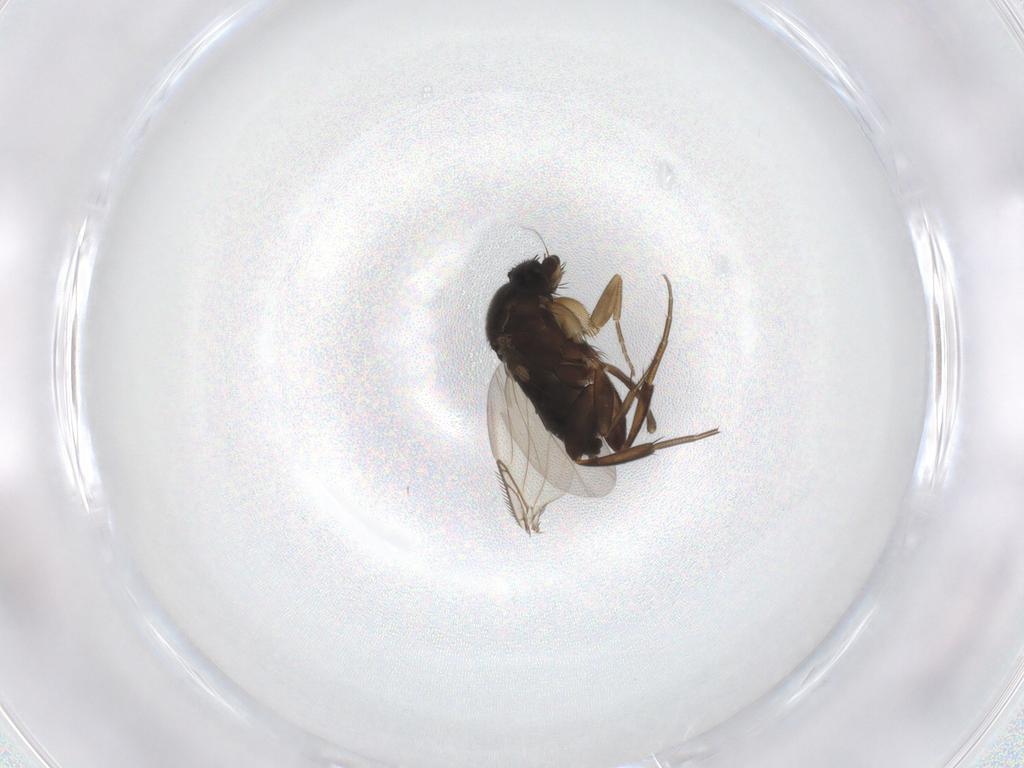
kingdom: Animalia
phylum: Arthropoda
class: Insecta
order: Diptera
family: Phoridae
